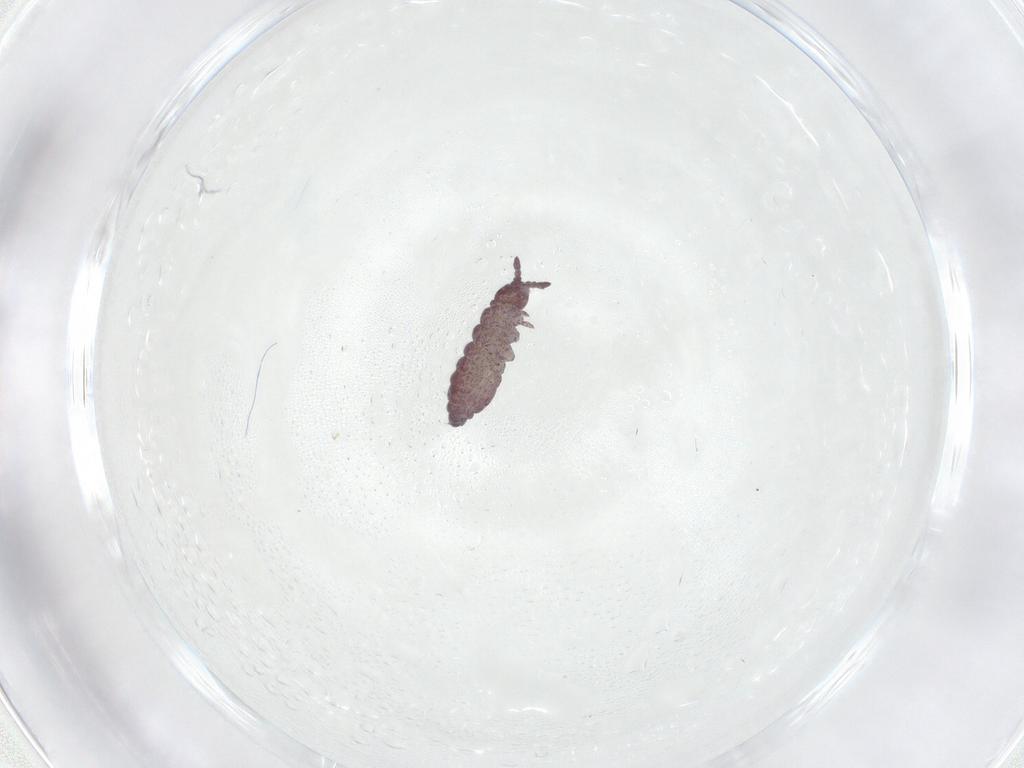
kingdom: Animalia
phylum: Arthropoda
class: Collembola
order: Poduromorpha
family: Hypogastruridae
